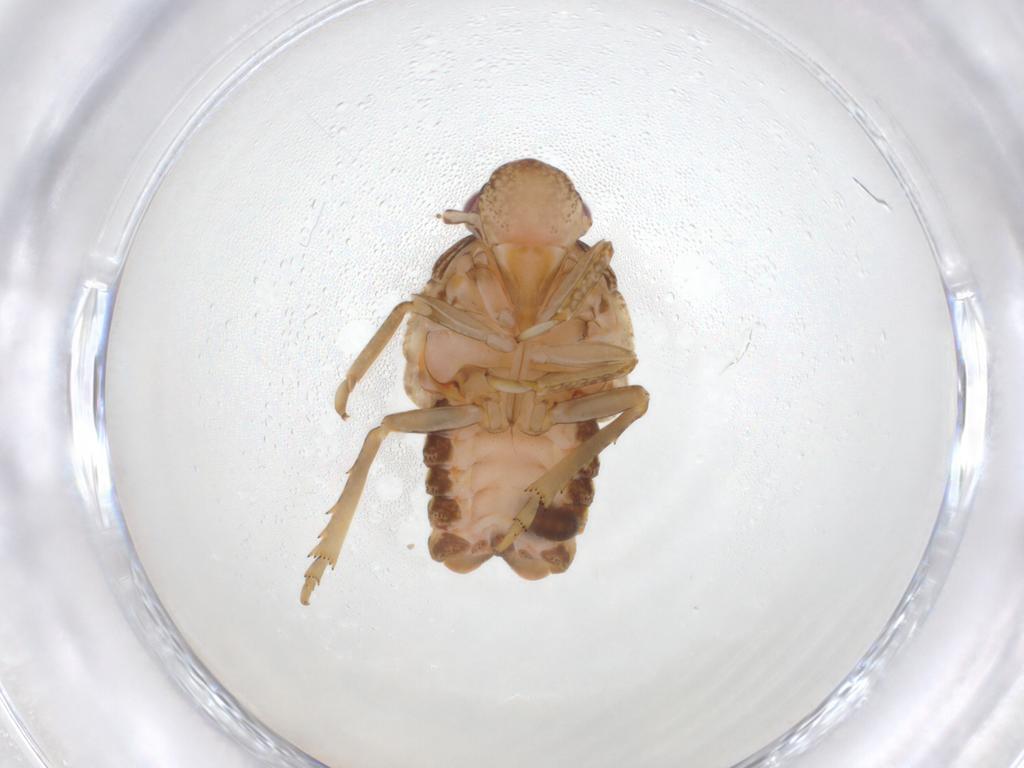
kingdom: Animalia
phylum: Arthropoda
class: Insecta
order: Hemiptera
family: Flatidae
